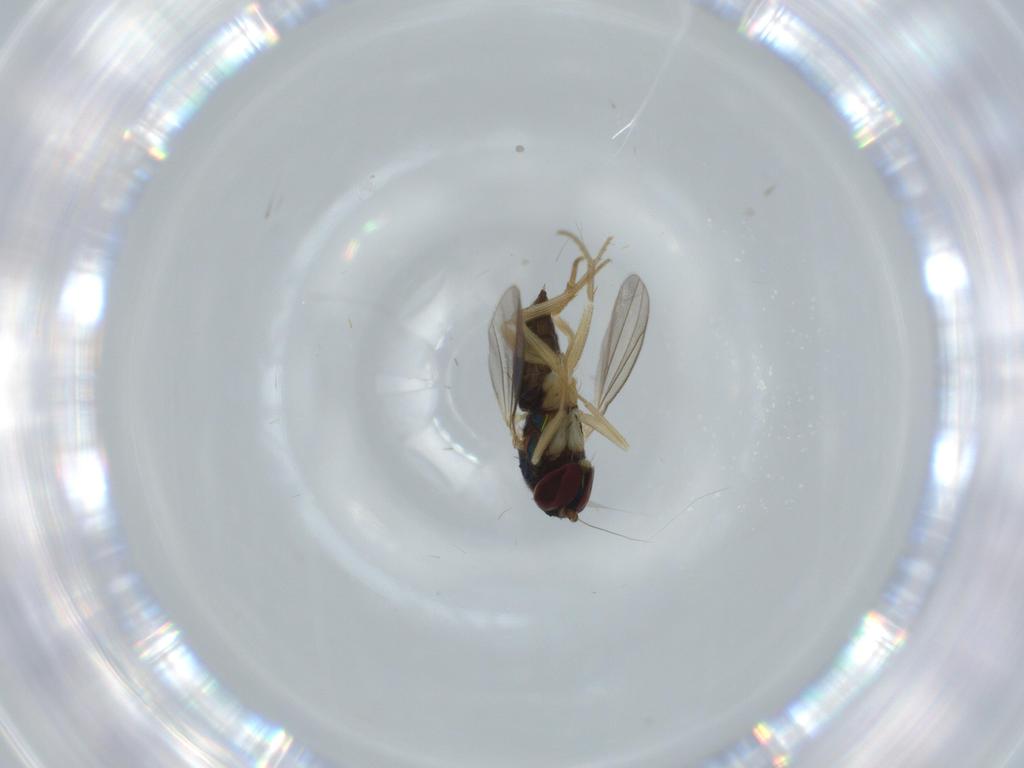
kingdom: Animalia
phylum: Arthropoda
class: Insecta
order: Diptera
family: Dolichopodidae
